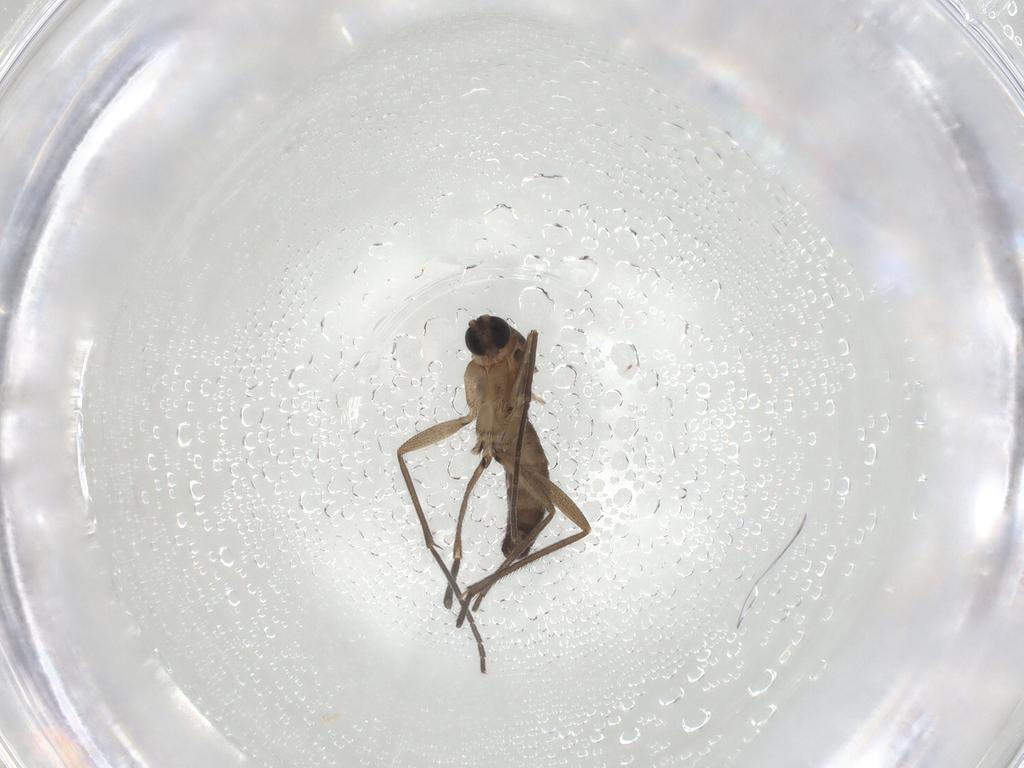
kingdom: Animalia
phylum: Arthropoda
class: Insecta
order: Diptera
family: Sciaridae
